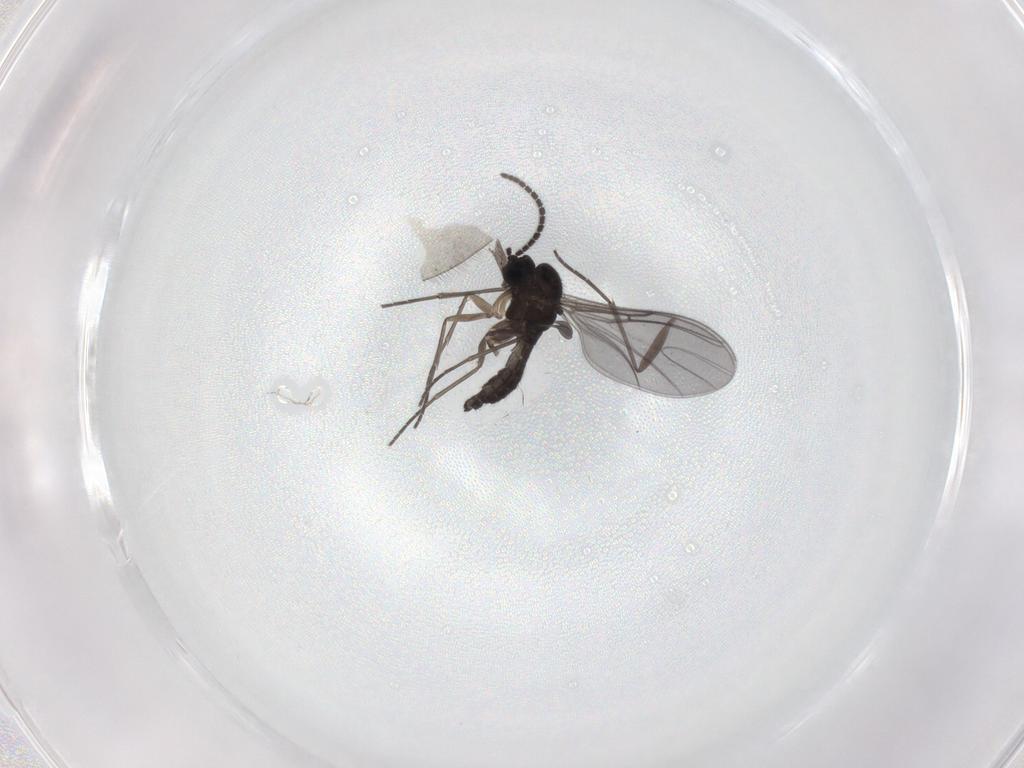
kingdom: Animalia
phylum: Arthropoda
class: Insecta
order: Diptera
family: Sciaridae
